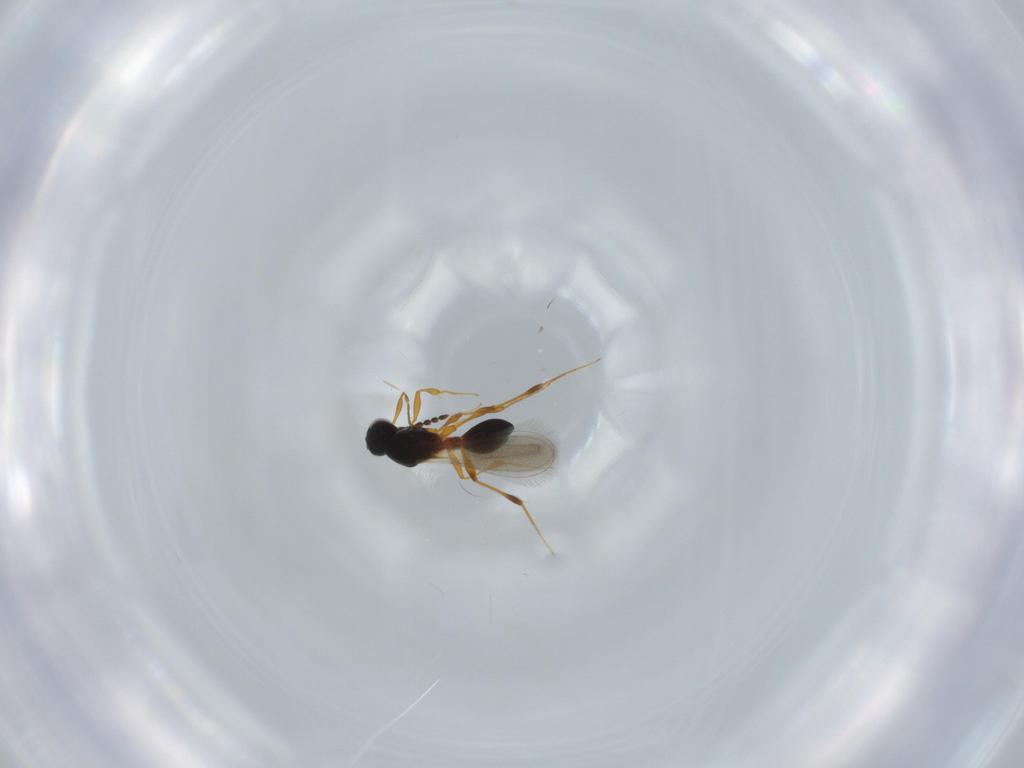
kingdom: Animalia
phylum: Arthropoda
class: Insecta
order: Hymenoptera
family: Platygastridae
